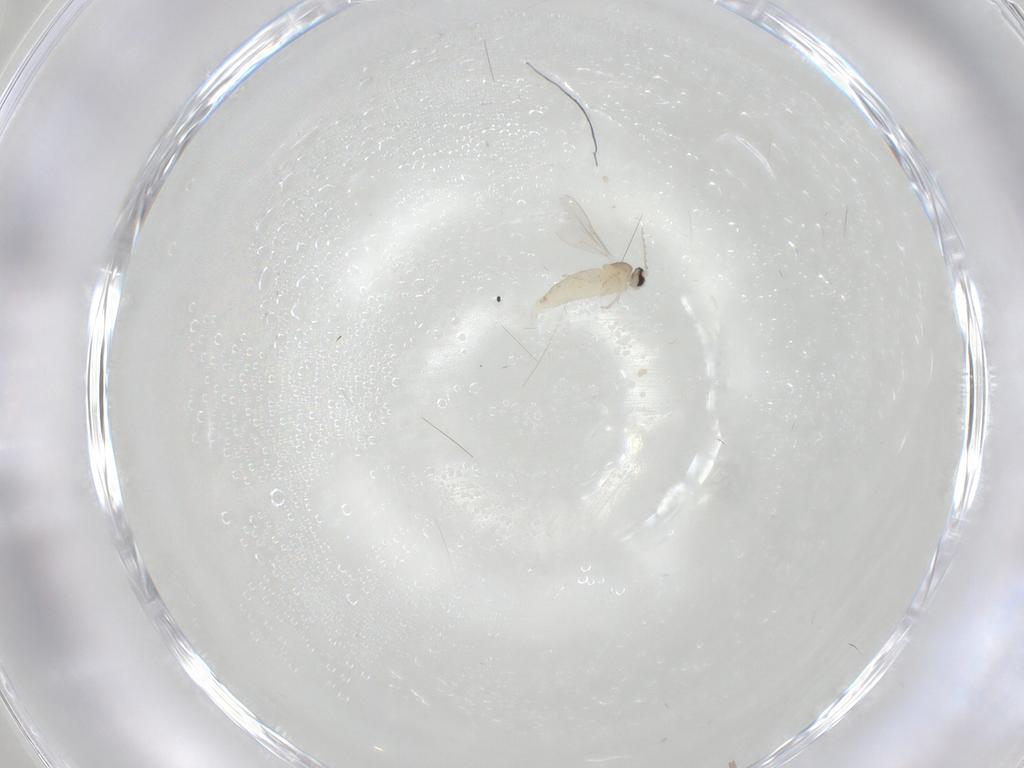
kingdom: Animalia
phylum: Arthropoda
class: Insecta
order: Diptera
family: Cecidomyiidae
